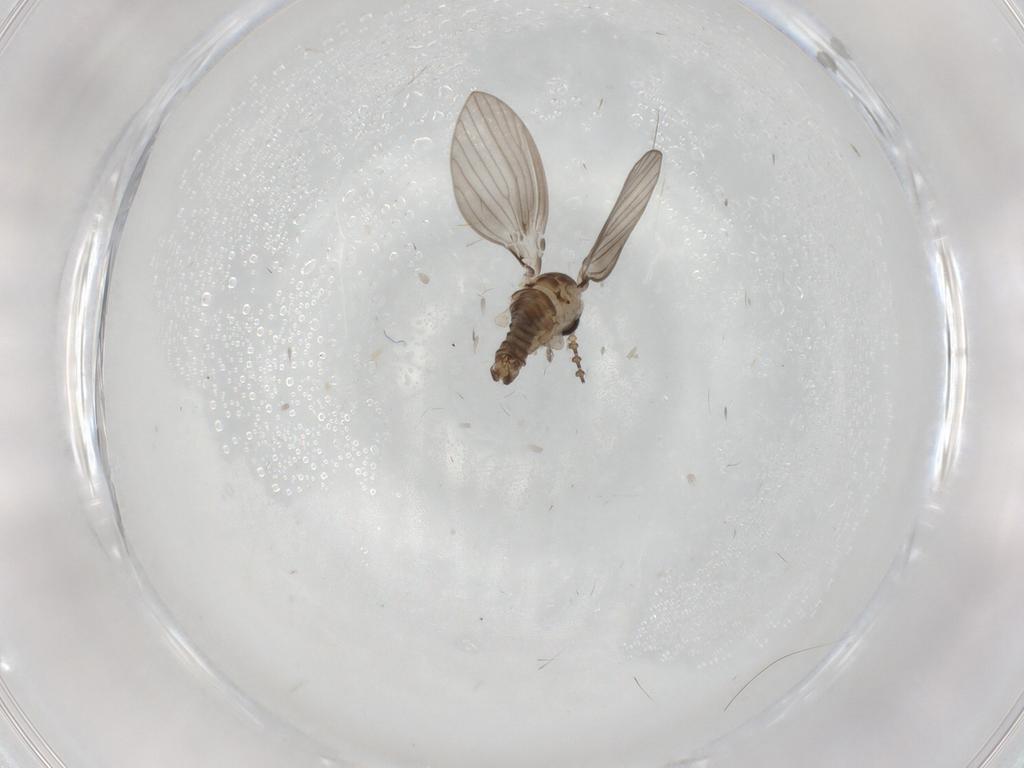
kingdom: Animalia
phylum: Arthropoda
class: Insecta
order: Diptera
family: Psychodidae
